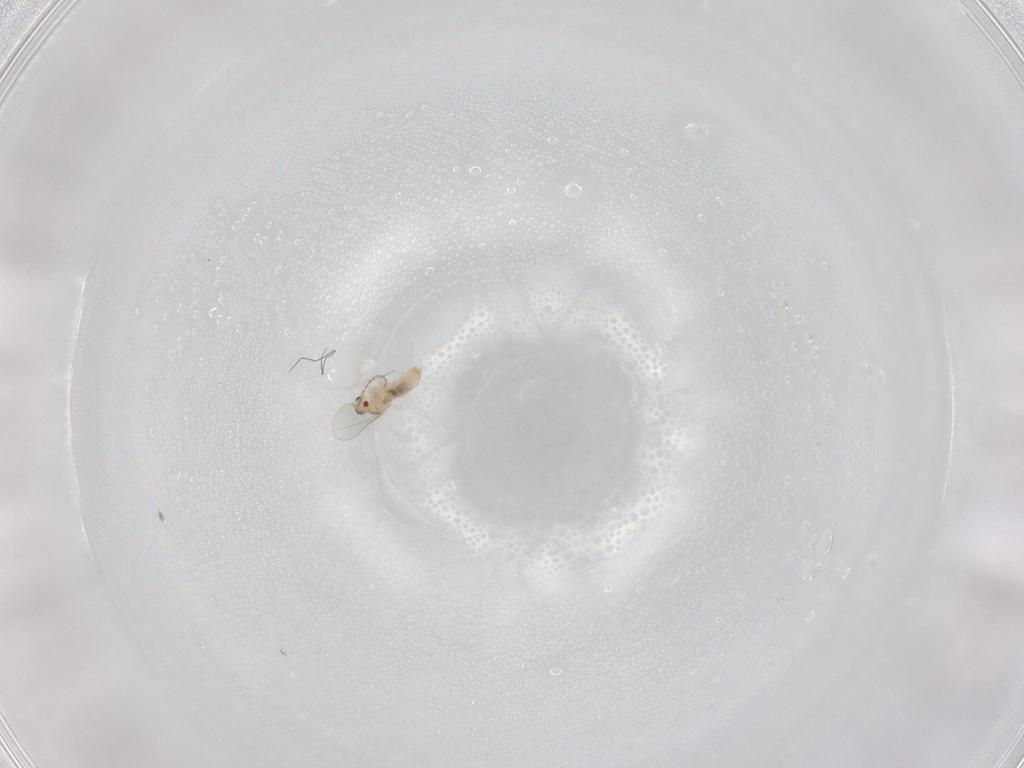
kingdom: Animalia
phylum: Arthropoda
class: Insecta
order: Diptera
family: Cecidomyiidae
